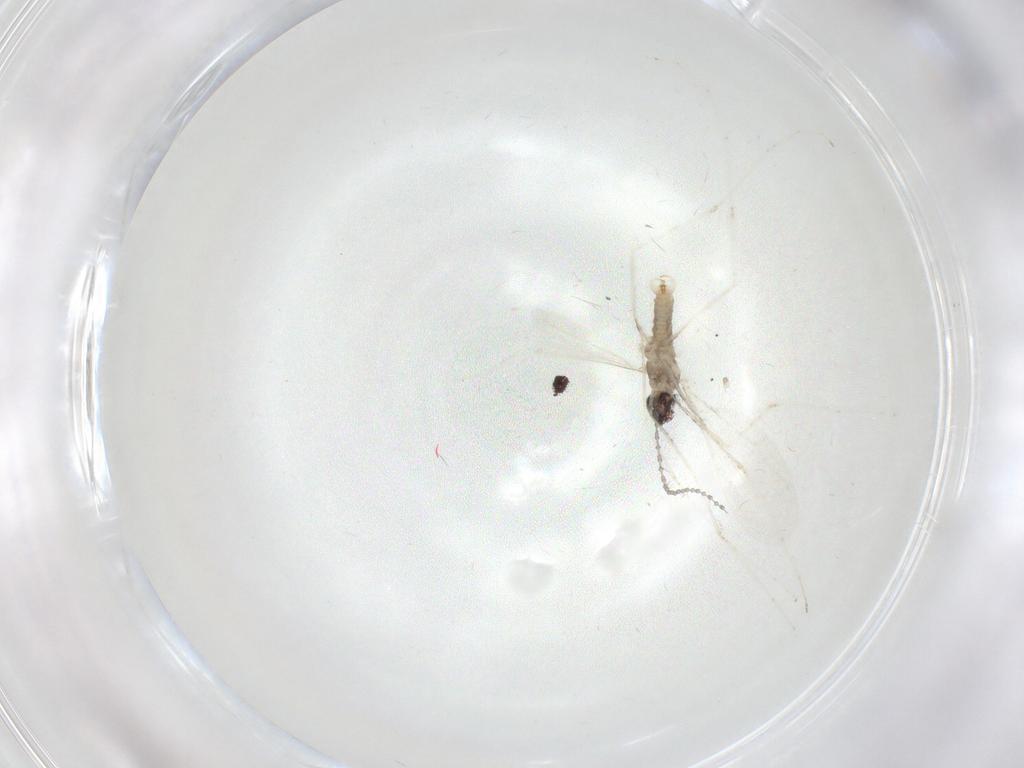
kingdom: Animalia
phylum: Arthropoda
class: Insecta
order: Diptera
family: Cecidomyiidae
